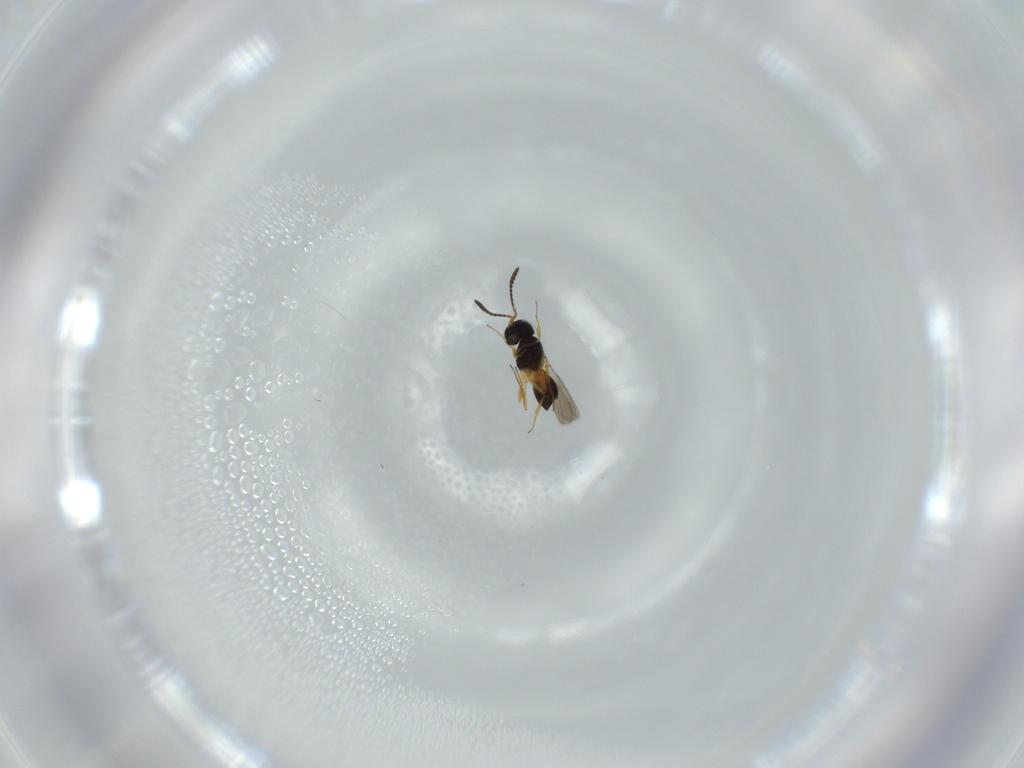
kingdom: Animalia
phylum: Arthropoda
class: Insecta
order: Hymenoptera
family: Scelionidae
